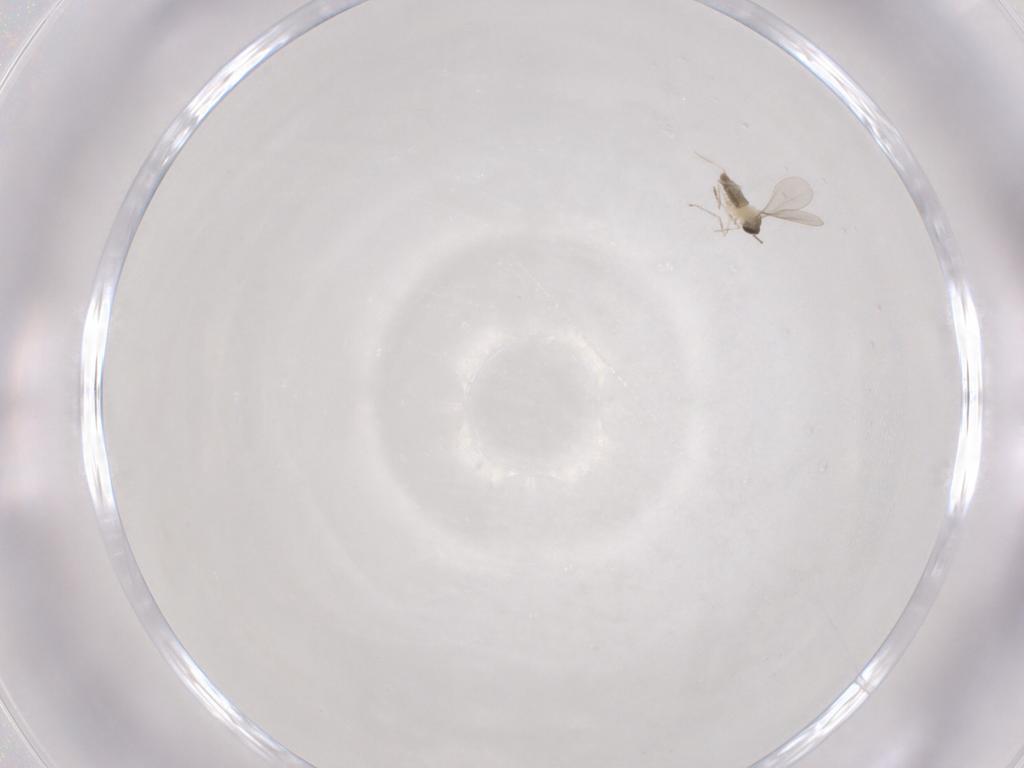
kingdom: Animalia
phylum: Arthropoda
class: Insecta
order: Diptera
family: Cecidomyiidae
